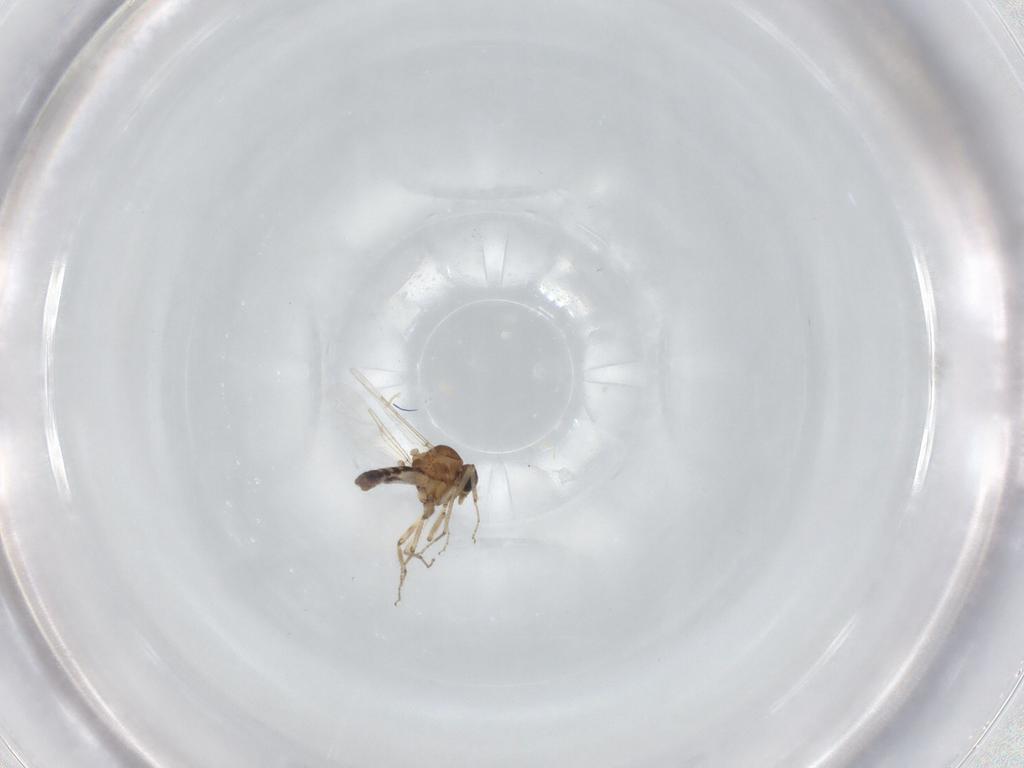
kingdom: Animalia
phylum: Arthropoda
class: Insecta
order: Diptera
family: Ceratopogonidae
